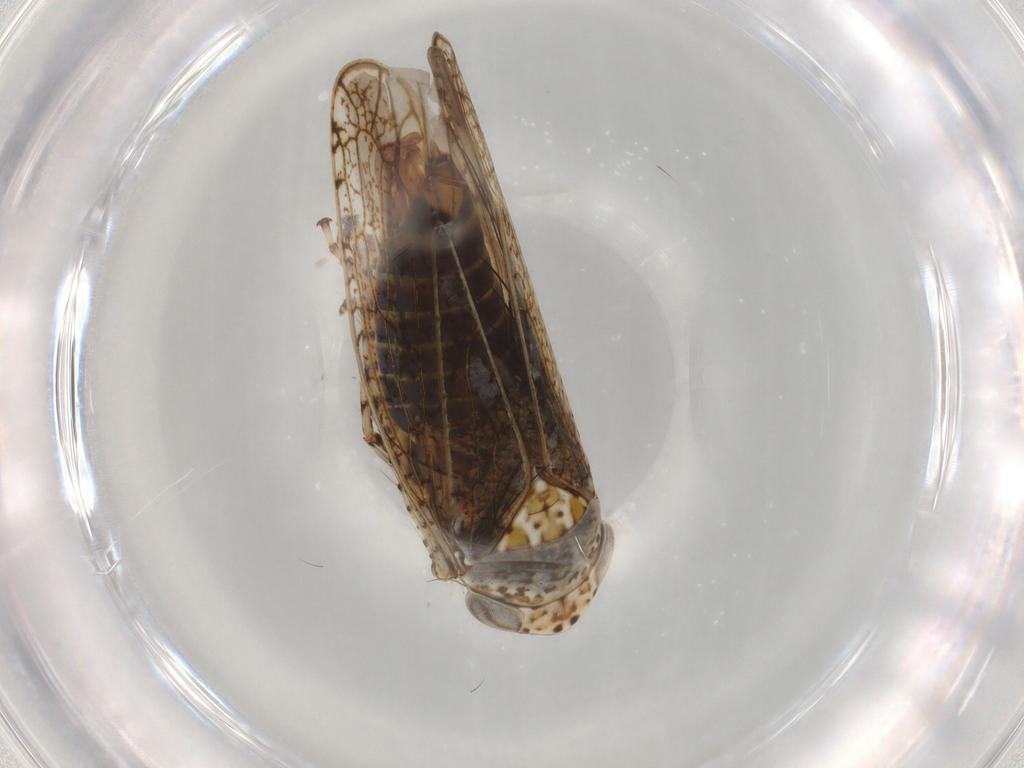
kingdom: Animalia
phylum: Arthropoda
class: Insecta
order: Hemiptera
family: Cicadellidae
